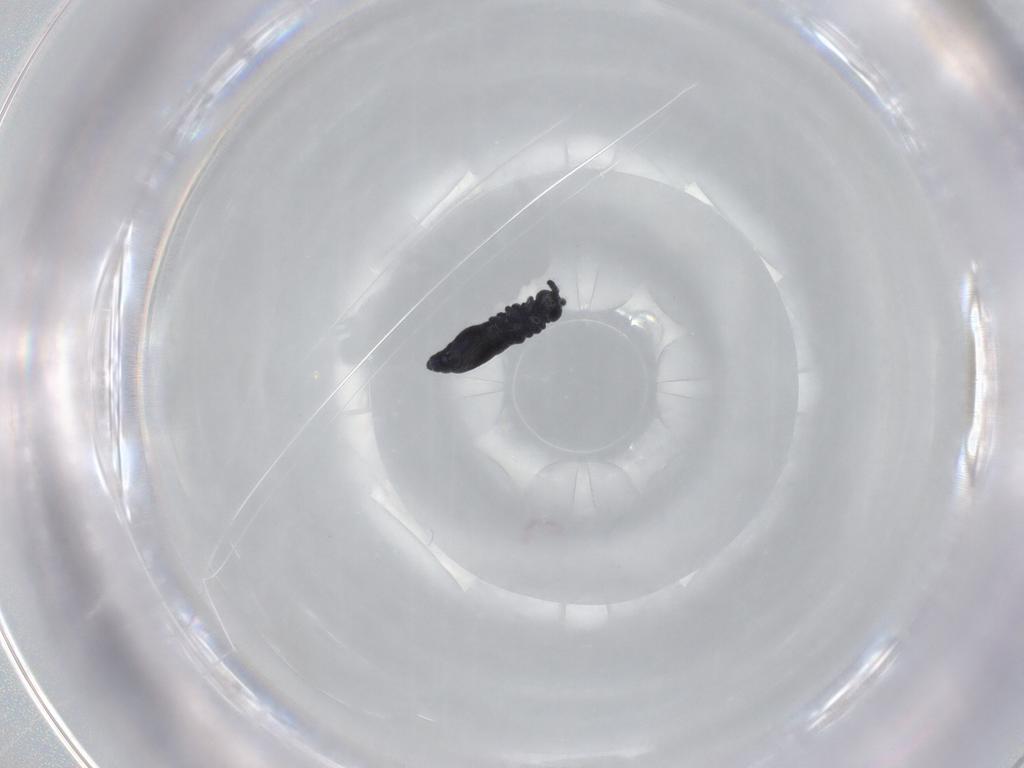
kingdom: Animalia
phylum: Arthropoda
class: Collembola
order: Poduromorpha
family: Hypogastruridae
